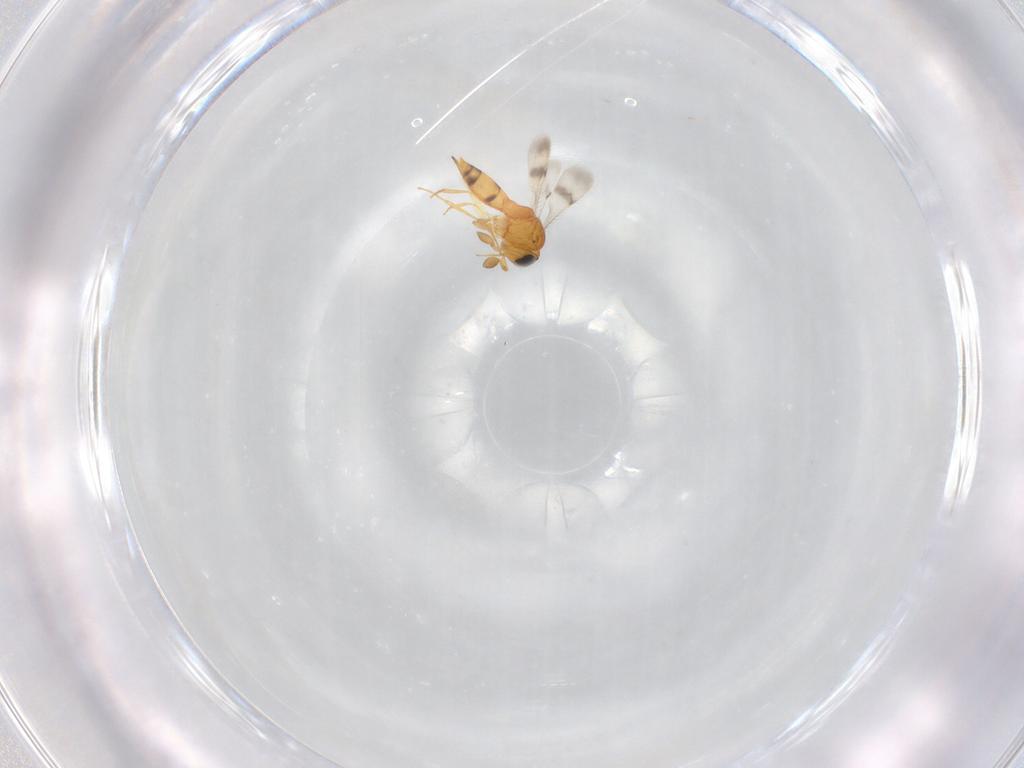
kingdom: Animalia
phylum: Arthropoda
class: Insecta
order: Hymenoptera
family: Scelionidae
